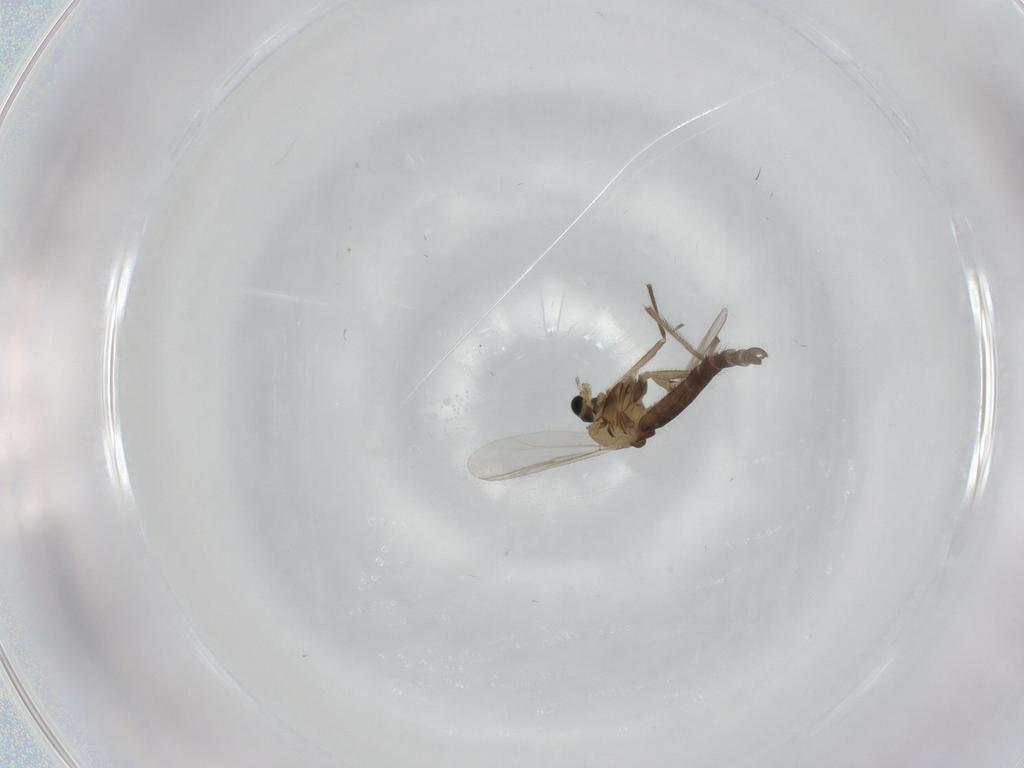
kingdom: Animalia
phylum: Arthropoda
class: Insecta
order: Diptera
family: Chironomidae
